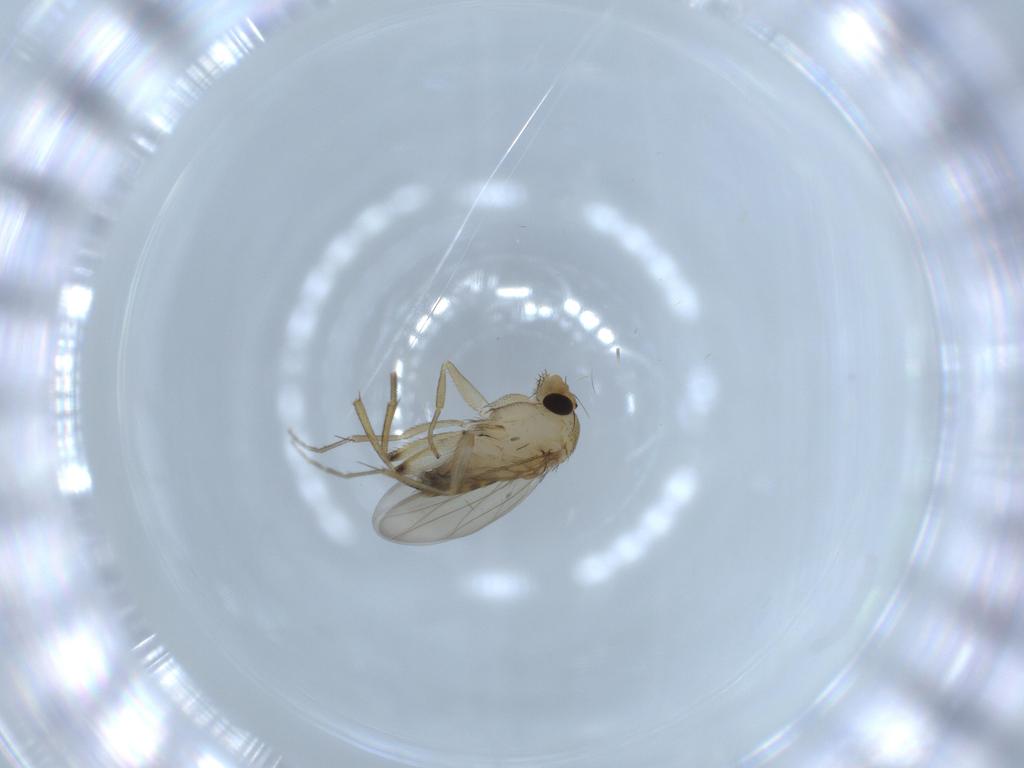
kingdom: Animalia
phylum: Arthropoda
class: Insecta
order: Diptera
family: Phoridae
